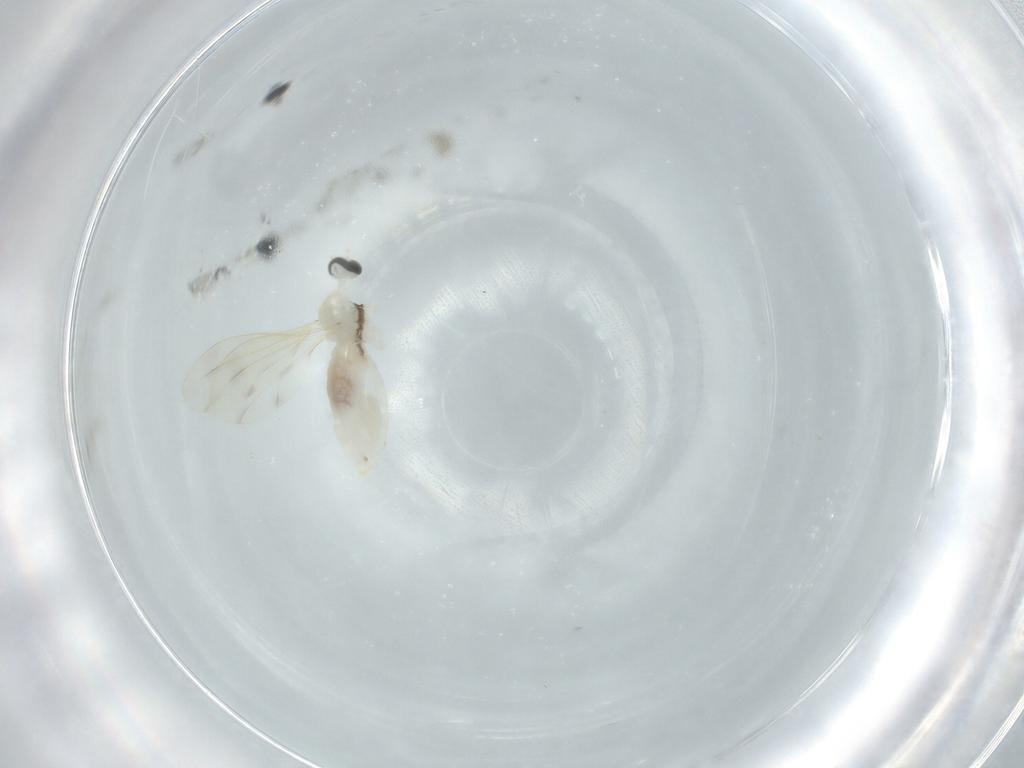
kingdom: Animalia
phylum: Arthropoda
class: Insecta
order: Diptera
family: Cecidomyiidae
